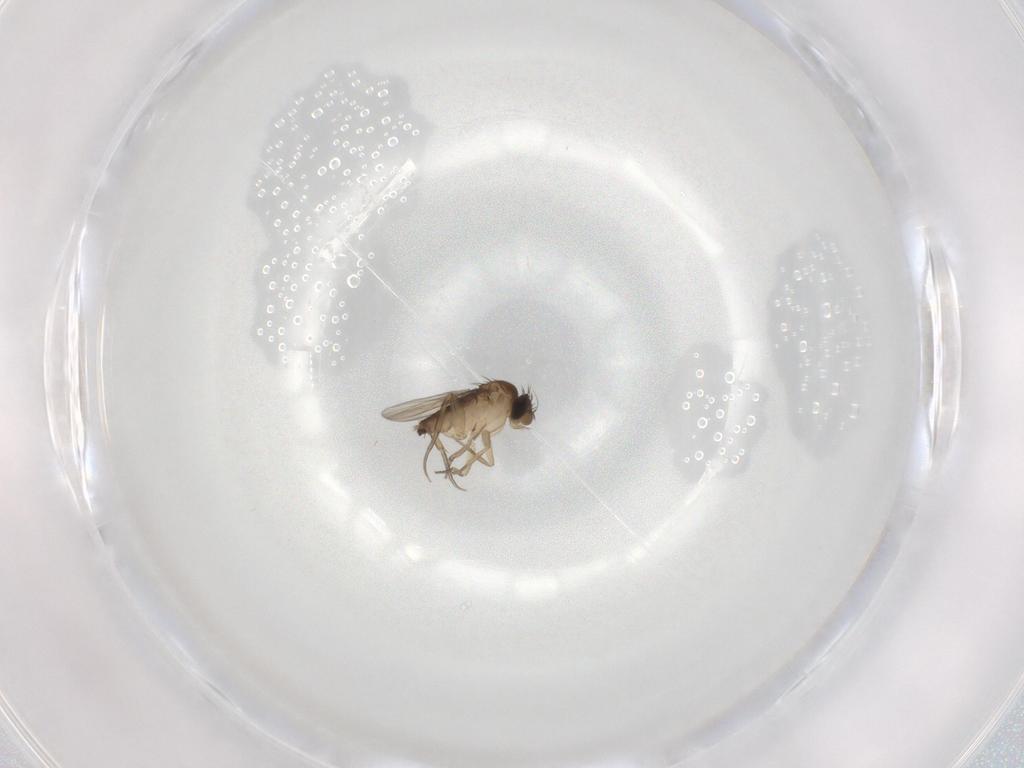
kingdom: Animalia
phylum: Arthropoda
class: Insecta
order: Diptera
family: Phoridae
